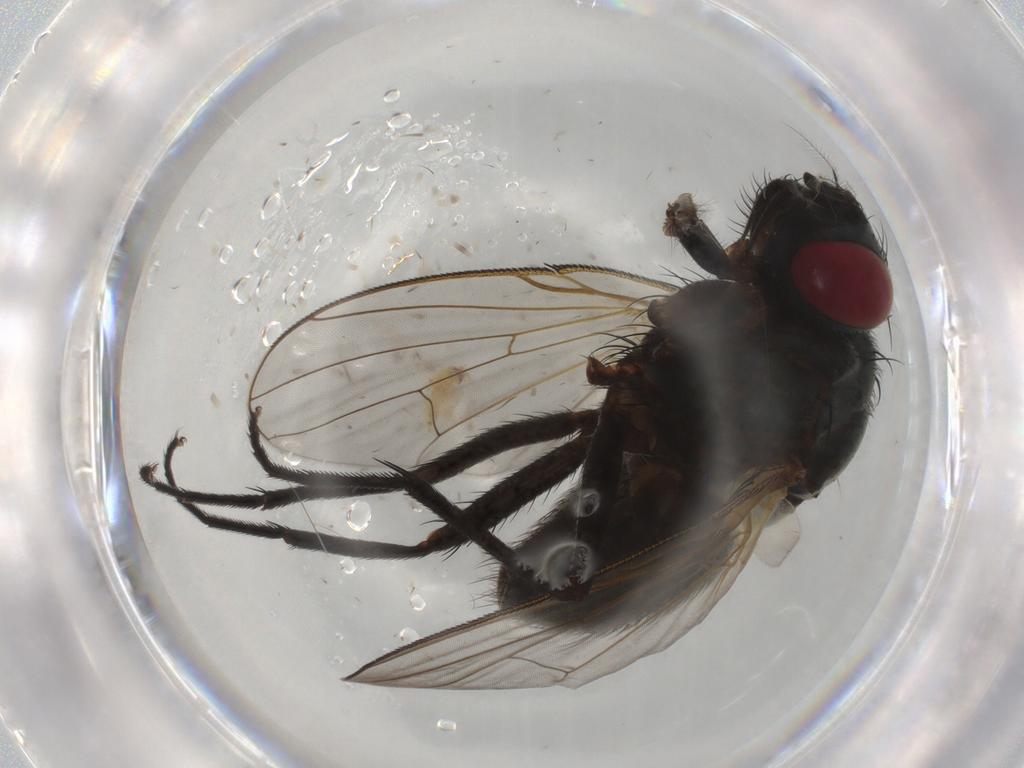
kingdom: Animalia
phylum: Arthropoda
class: Insecta
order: Diptera
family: Muscidae
